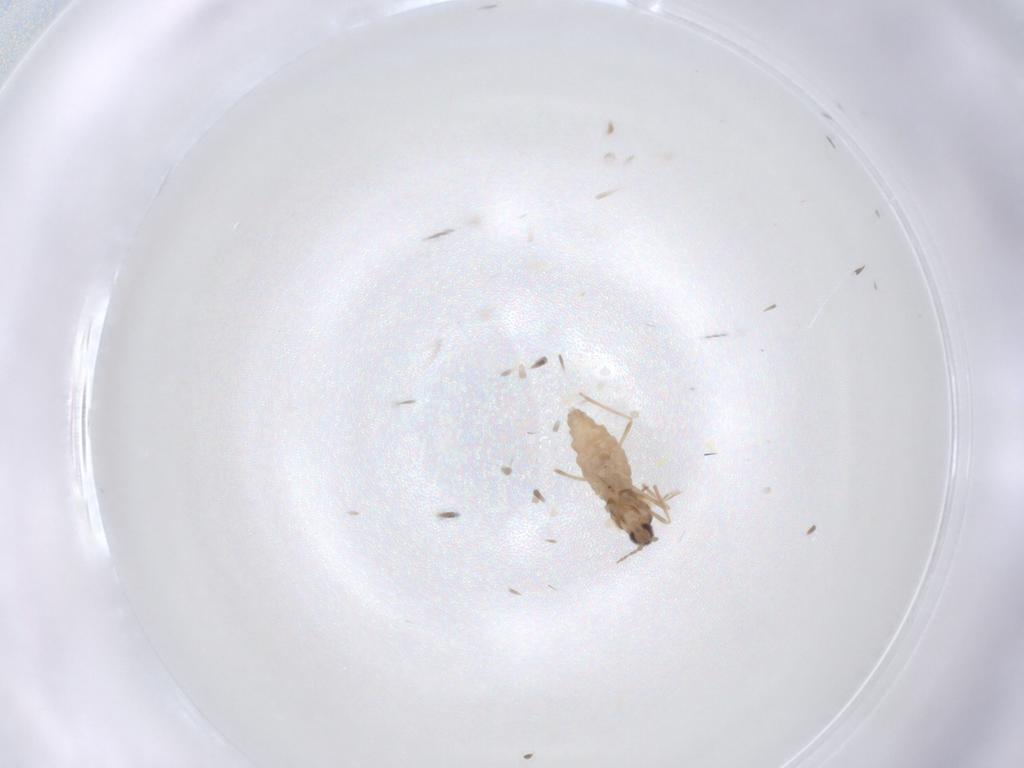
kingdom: Animalia
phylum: Arthropoda
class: Insecta
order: Diptera
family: Cecidomyiidae
